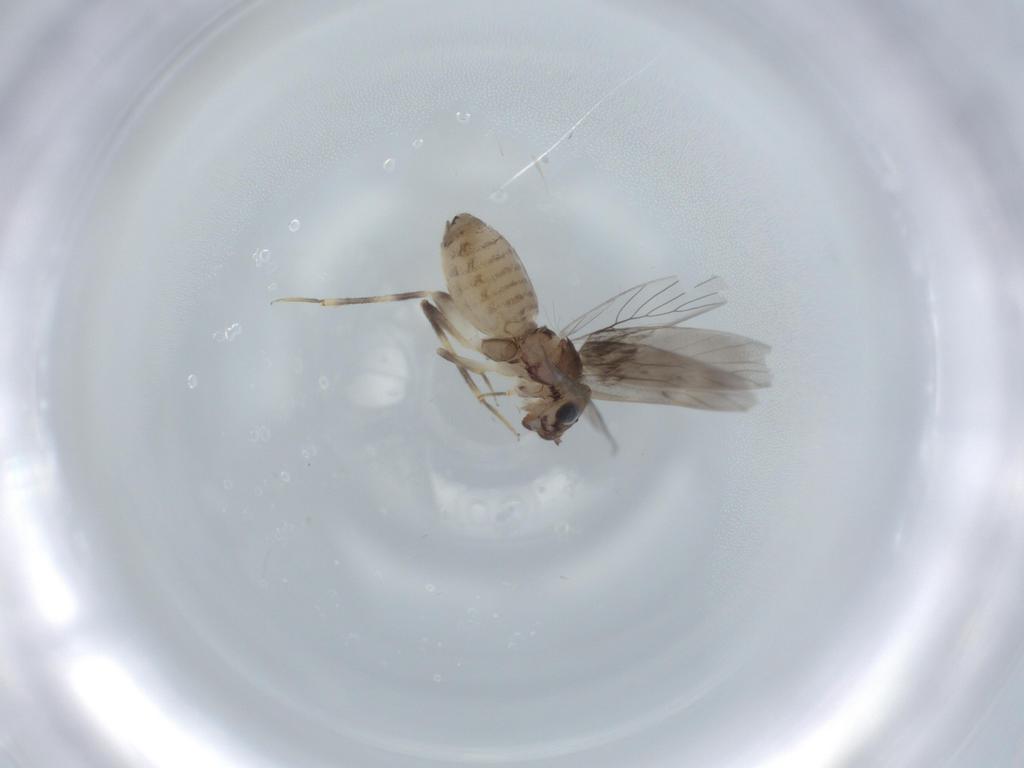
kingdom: Animalia
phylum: Arthropoda
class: Insecta
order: Psocodea
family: Lepidopsocidae
